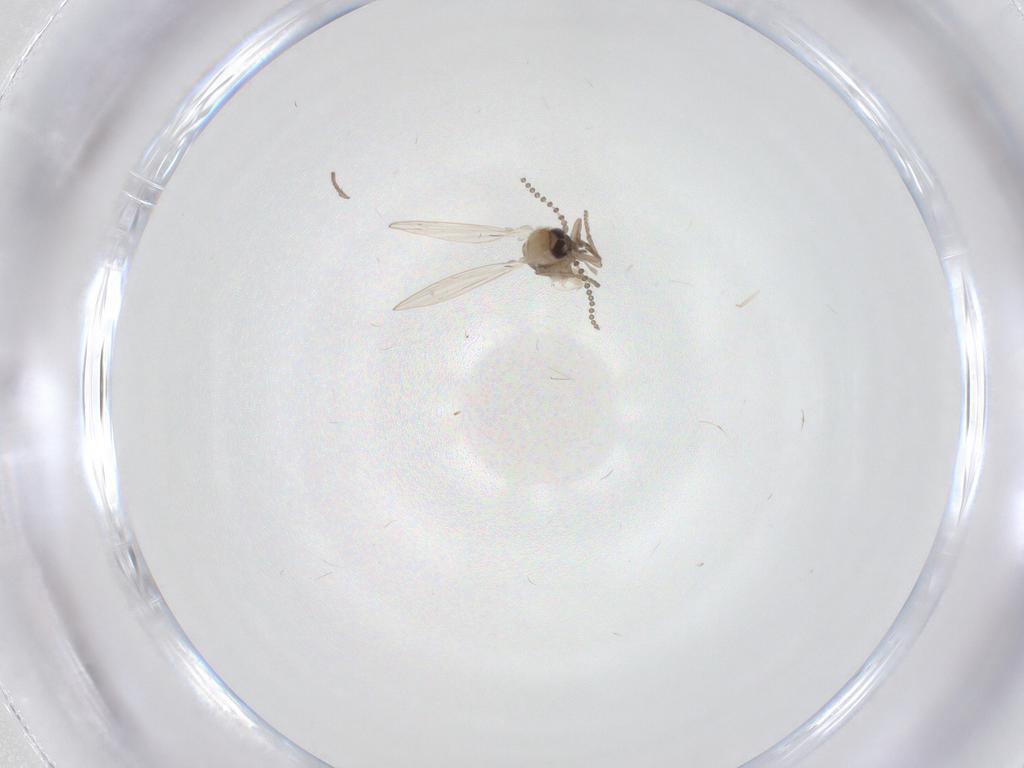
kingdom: Animalia
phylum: Arthropoda
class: Insecta
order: Diptera
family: Psychodidae
